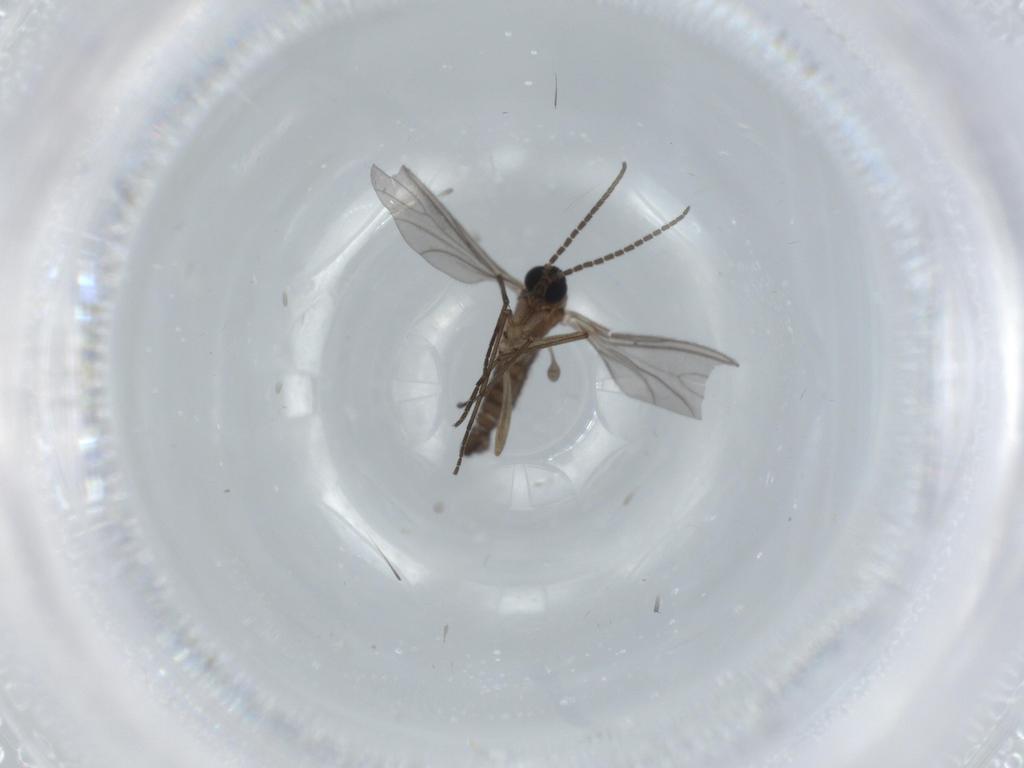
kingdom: Animalia
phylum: Arthropoda
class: Insecta
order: Diptera
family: Sciaridae
